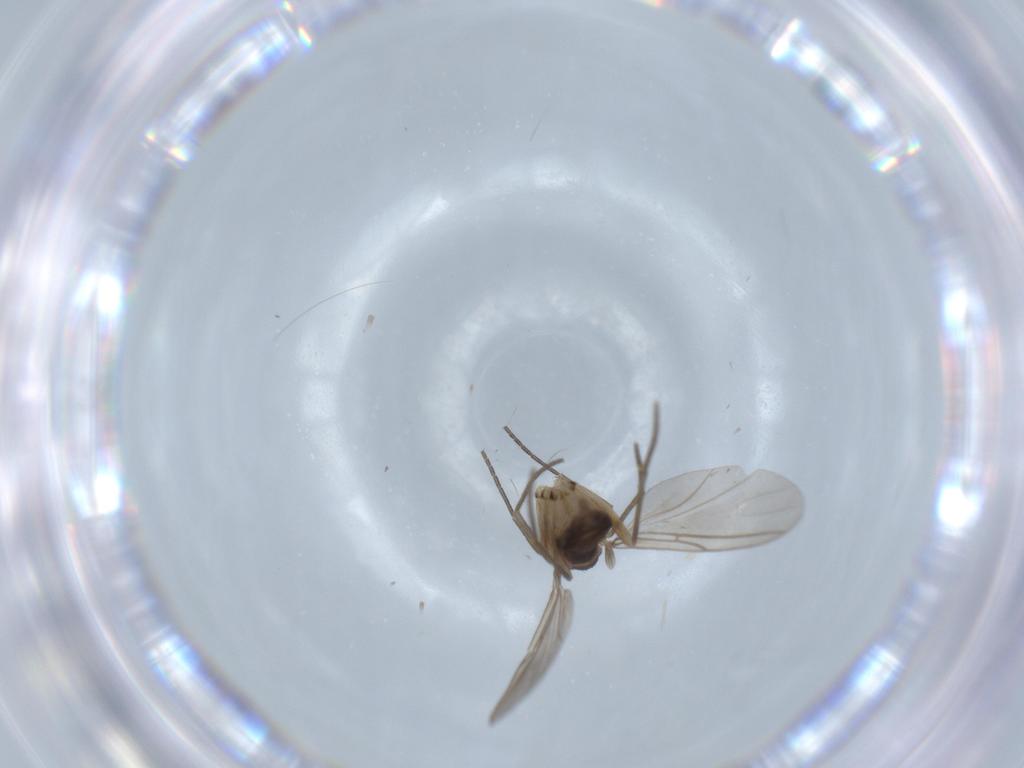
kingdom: Animalia
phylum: Arthropoda
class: Insecta
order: Diptera
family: Sciaridae
